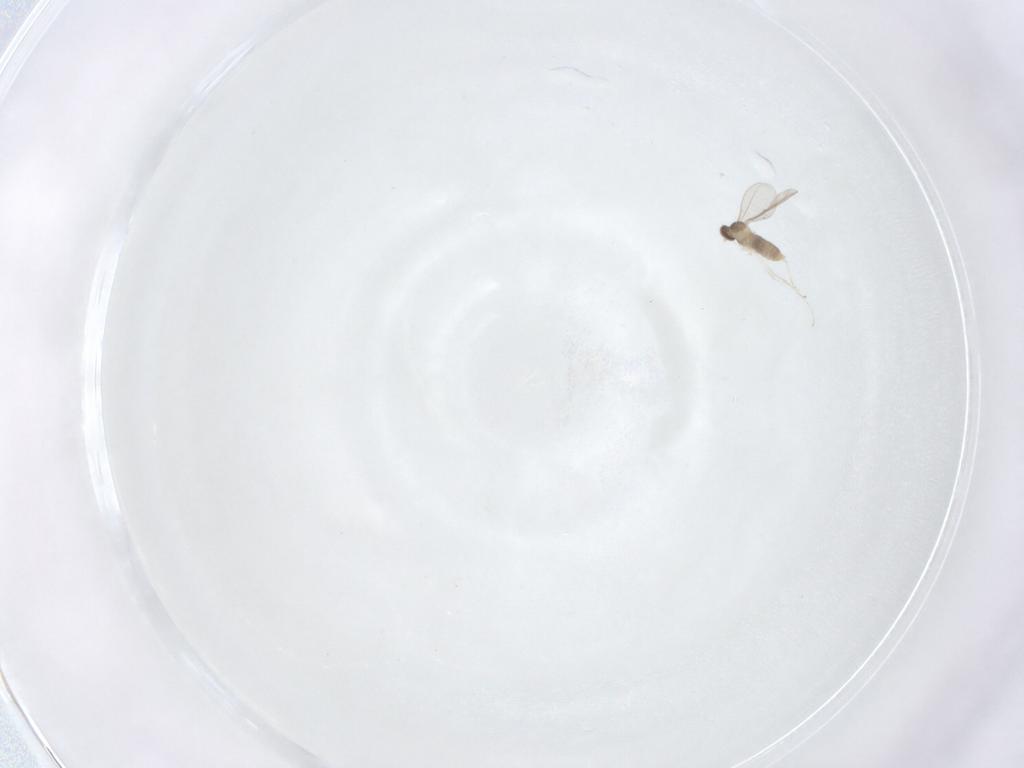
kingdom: Animalia
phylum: Arthropoda
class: Insecta
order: Diptera
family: Cecidomyiidae
